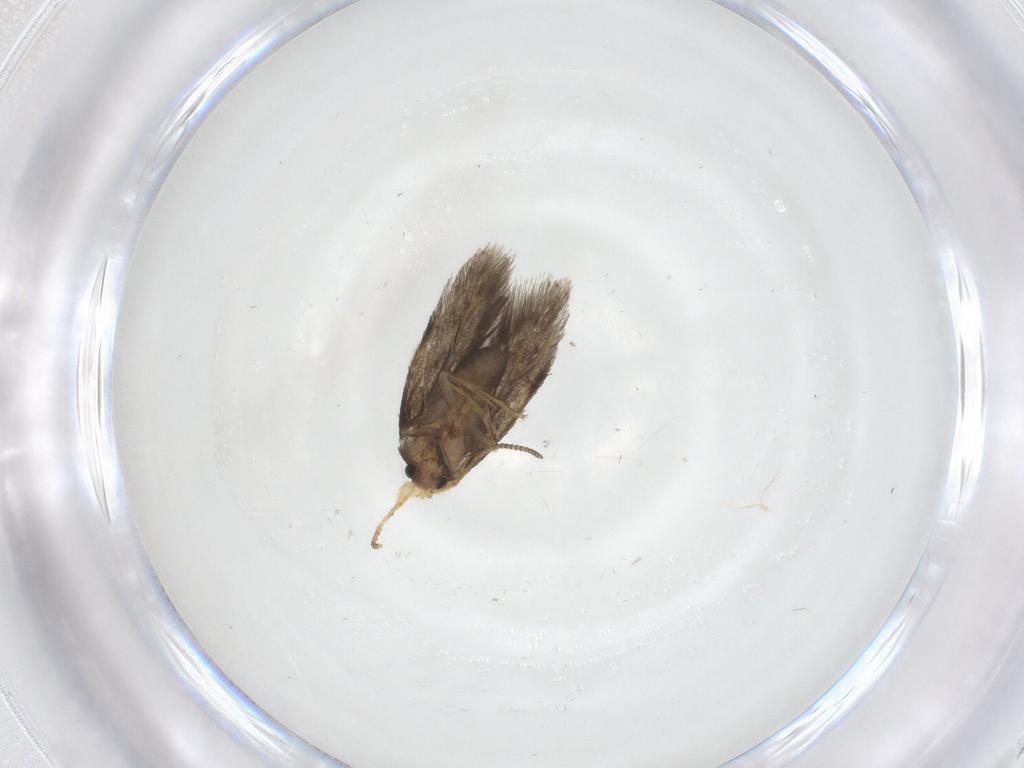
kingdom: Animalia
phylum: Arthropoda
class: Insecta
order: Lepidoptera
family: Nepticulidae
